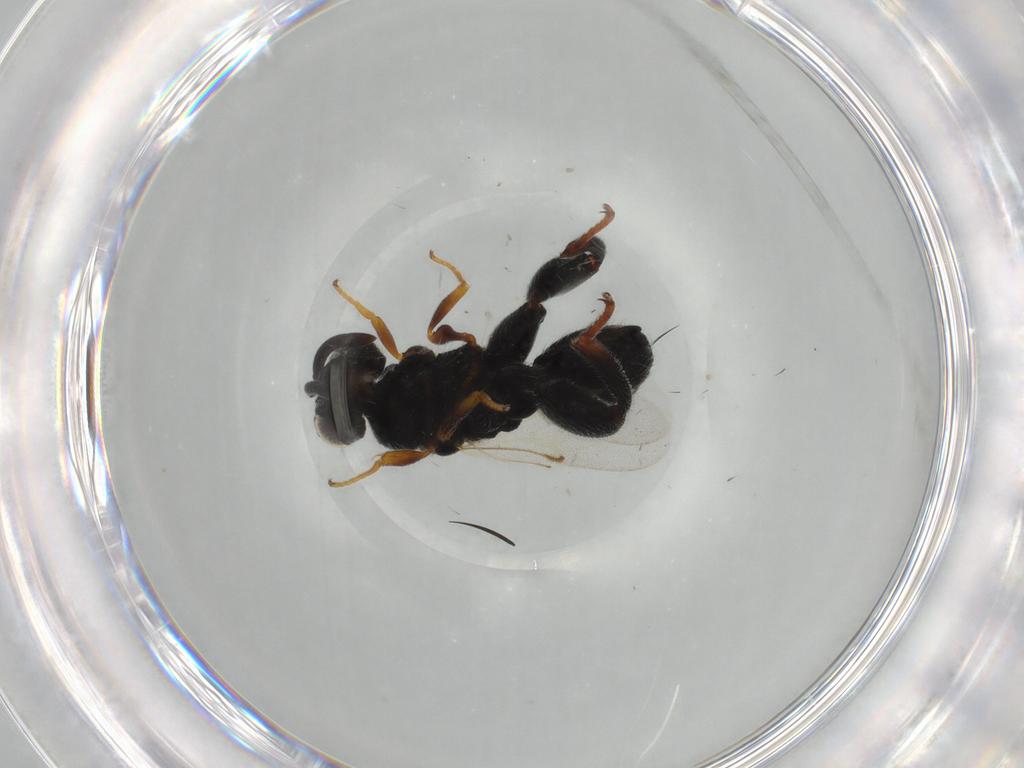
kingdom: Animalia
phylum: Arthropoda
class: Insecta
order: Hymenoptera
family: Chalcididae
